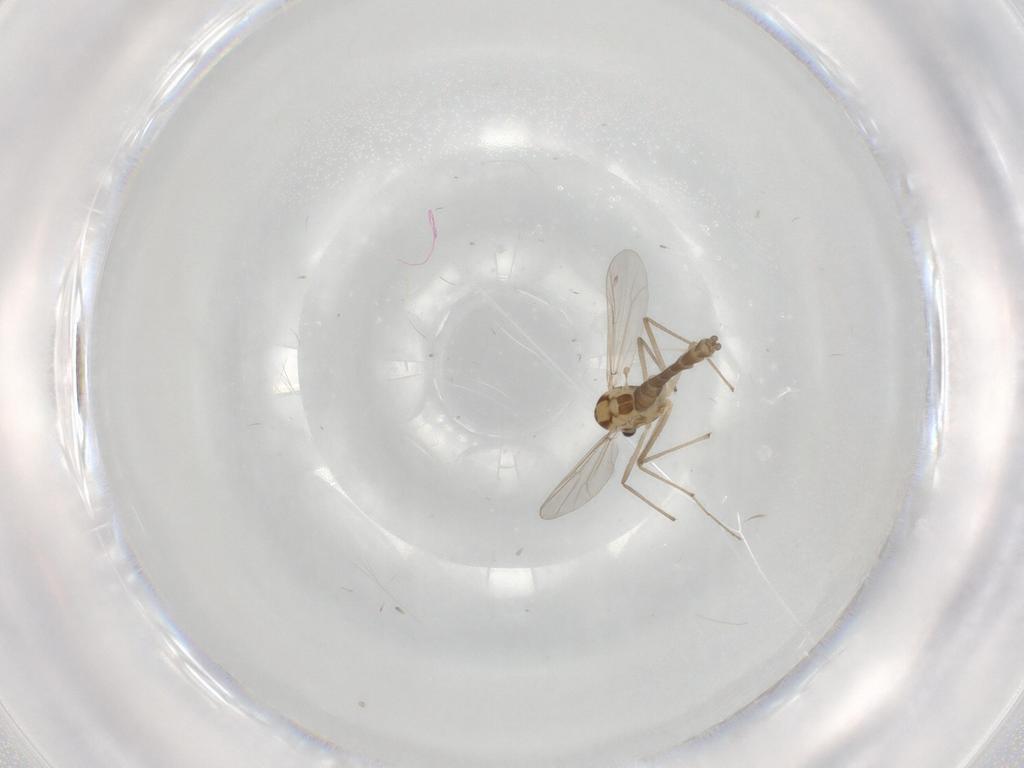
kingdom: Animalia
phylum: Arthropoda
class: Insecta
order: Diptera
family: Chironomidae
